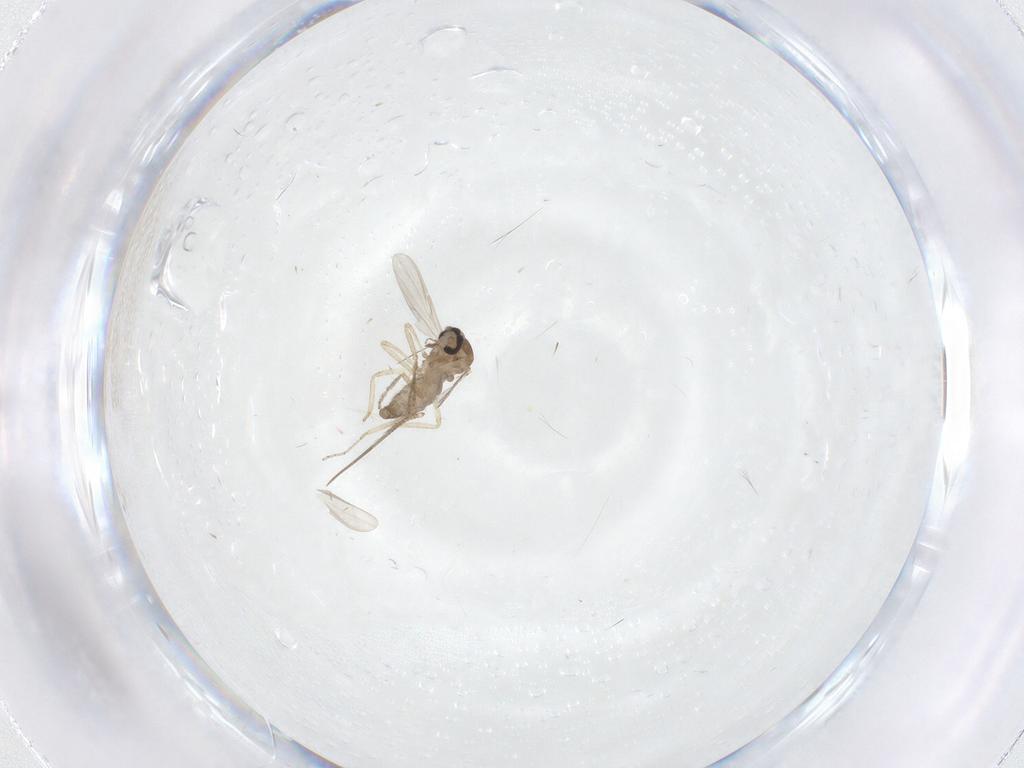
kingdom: Animalia
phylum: Arthropoda
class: Insecta
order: Diptera
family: Ceratopogonidae
